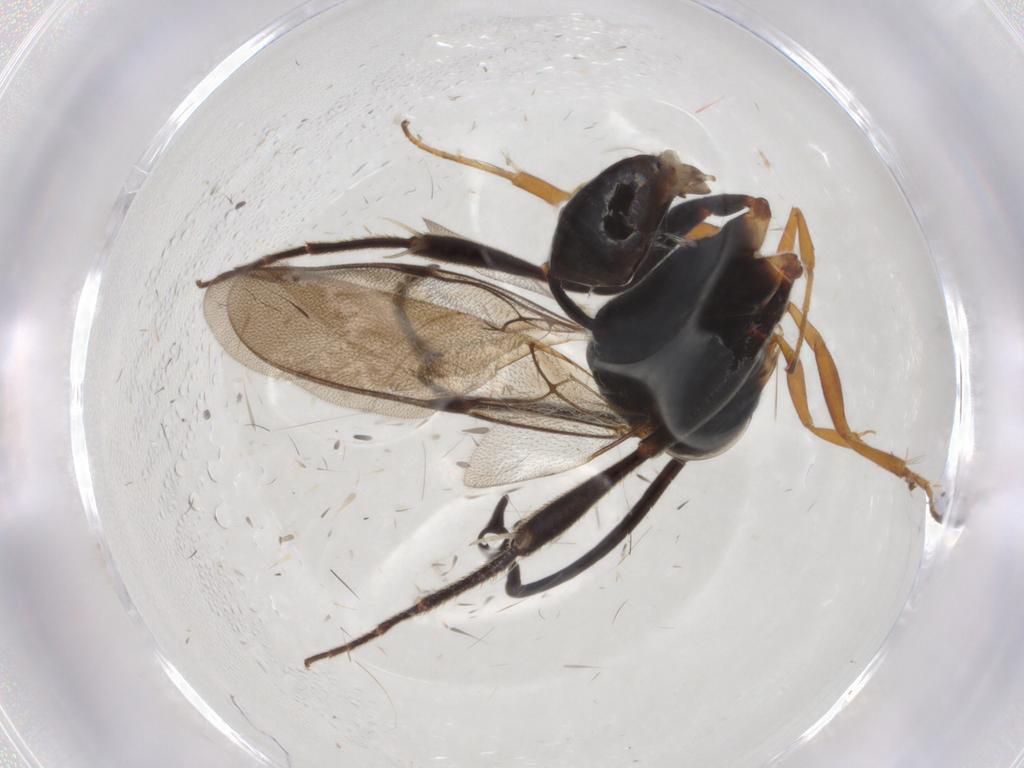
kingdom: Animalia
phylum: Arthropoda
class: Insecta
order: Hymenoptera
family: Evaniidae
